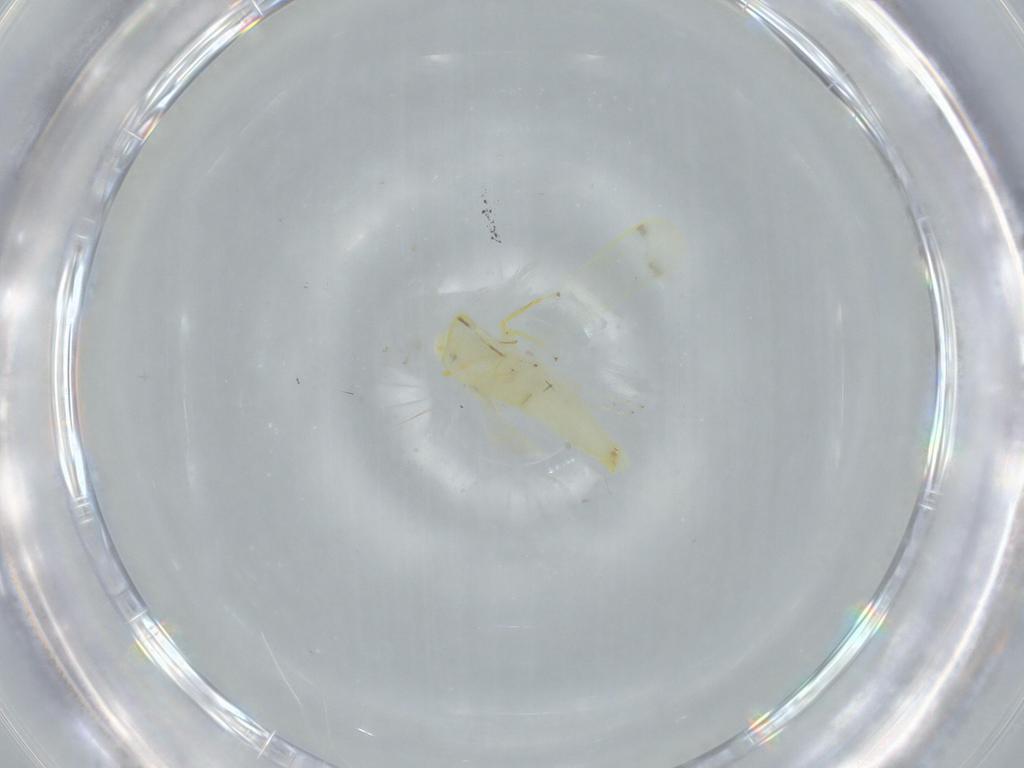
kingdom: Animalia
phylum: Arthropoda
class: Insecta
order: Hemiptera
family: Cicadellidae
